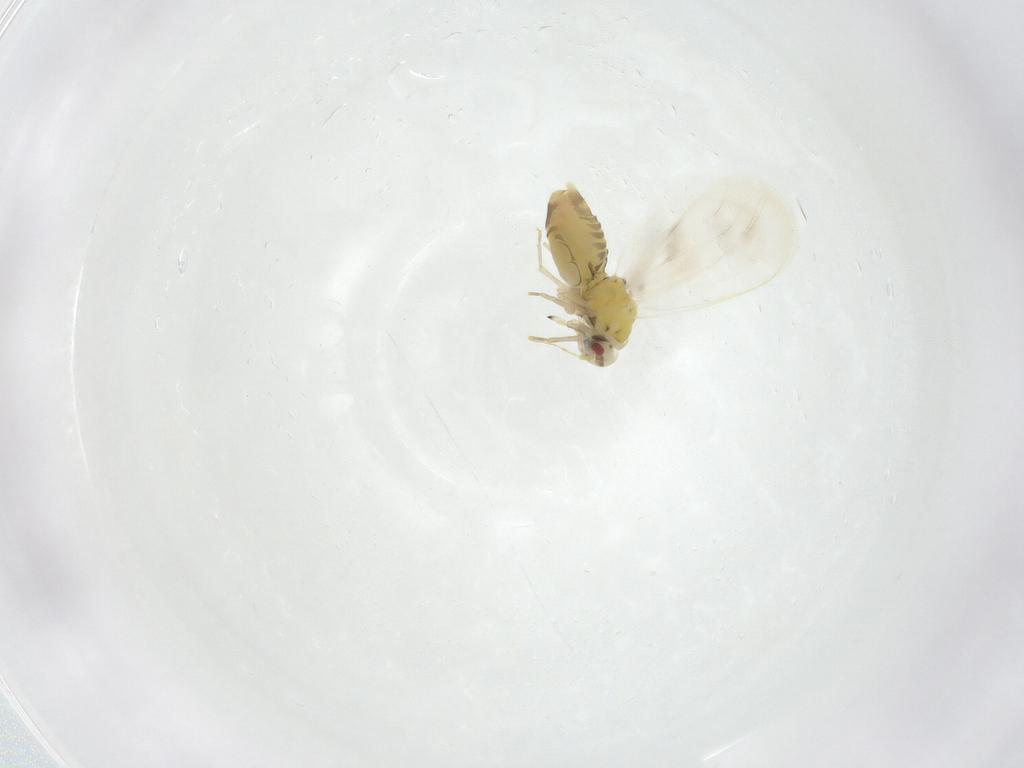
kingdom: Animalia
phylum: Arthropoda
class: Insecta
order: Hemiptera
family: Aleyrodidae
